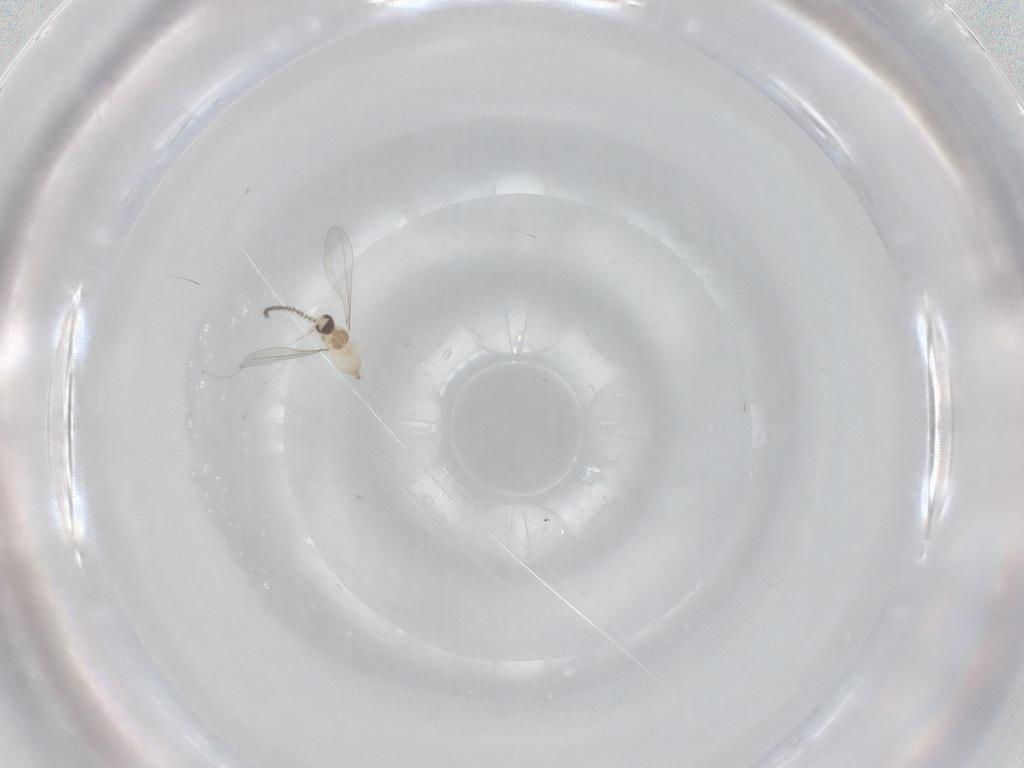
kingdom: Animalia
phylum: Arthropoda
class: Insecta
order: Diptera
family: Cecidomyiidae
